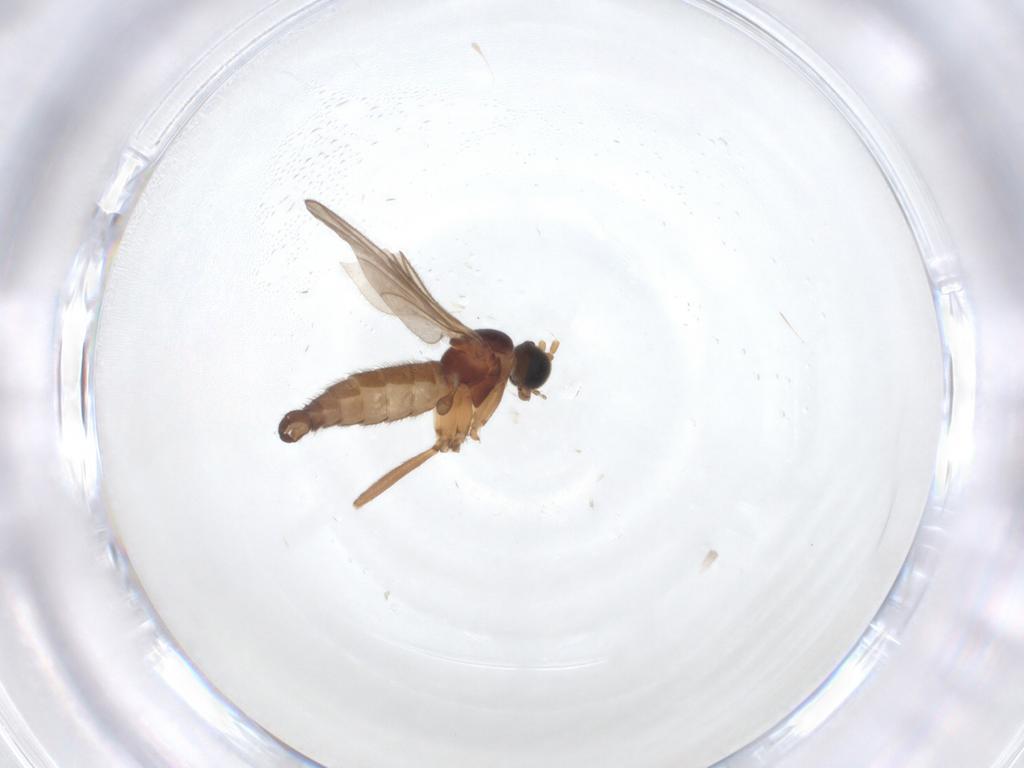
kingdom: Animalia
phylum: Arthropoda
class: Insecta
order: Diptera
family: Sciaridae
